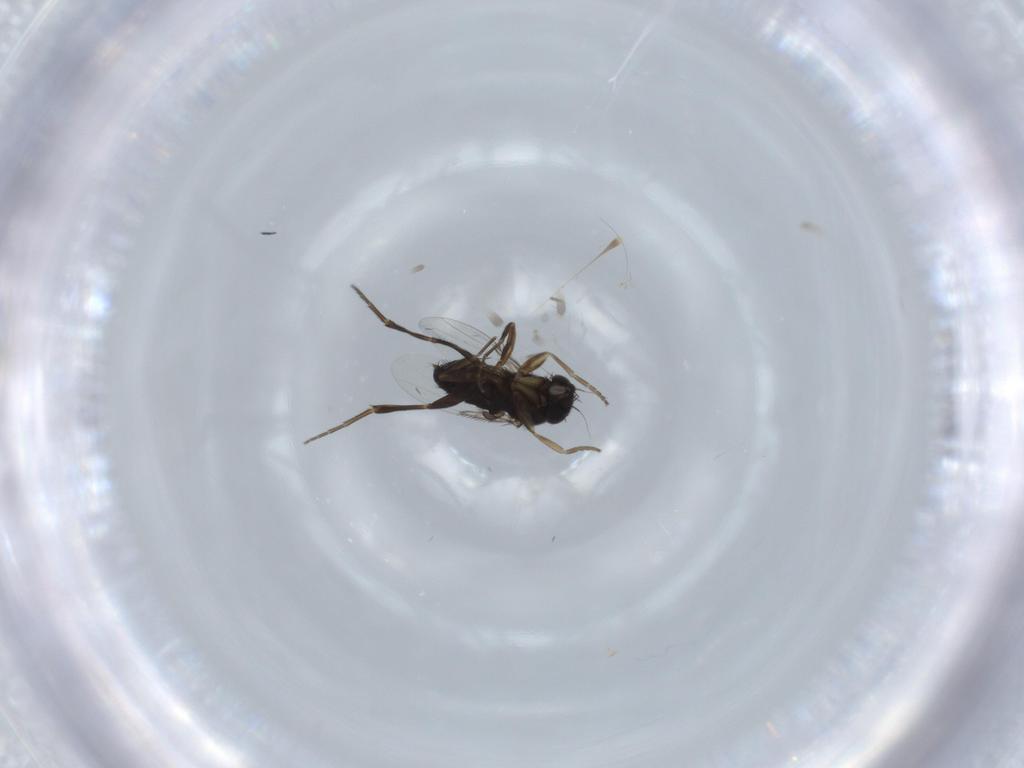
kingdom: Animalia
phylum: Arthropoda
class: Insecta
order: Diptera
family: Phoridae
